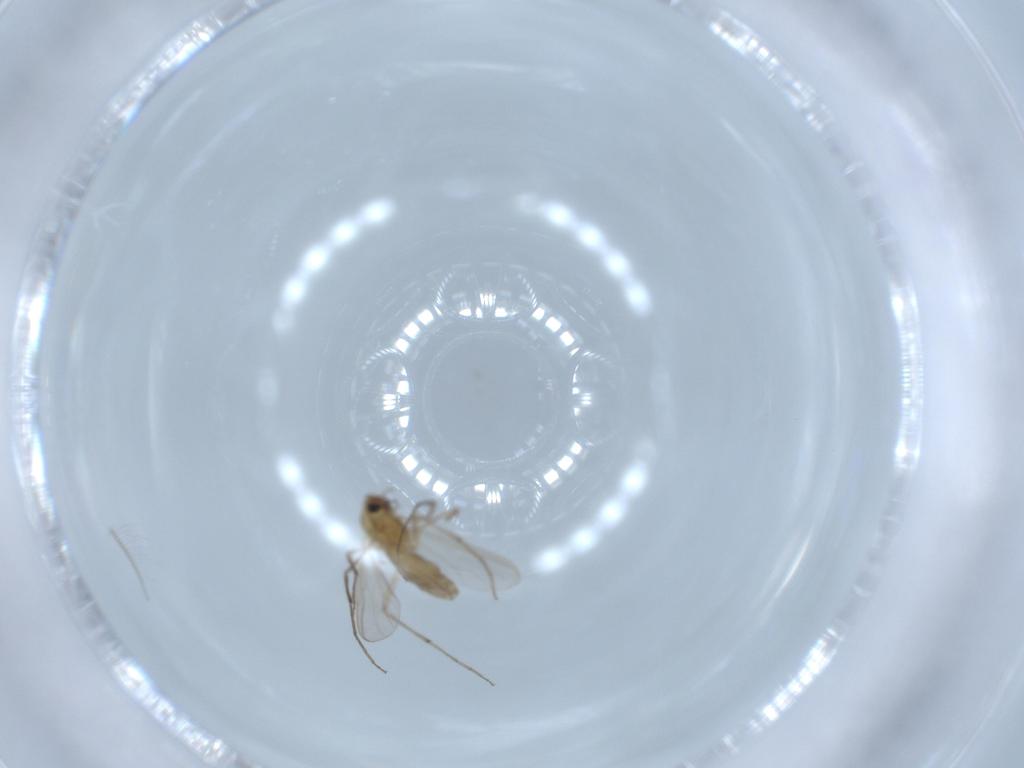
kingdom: Animalia
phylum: Arthropoda
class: Insecta
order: Diptera
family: Chironomidae
